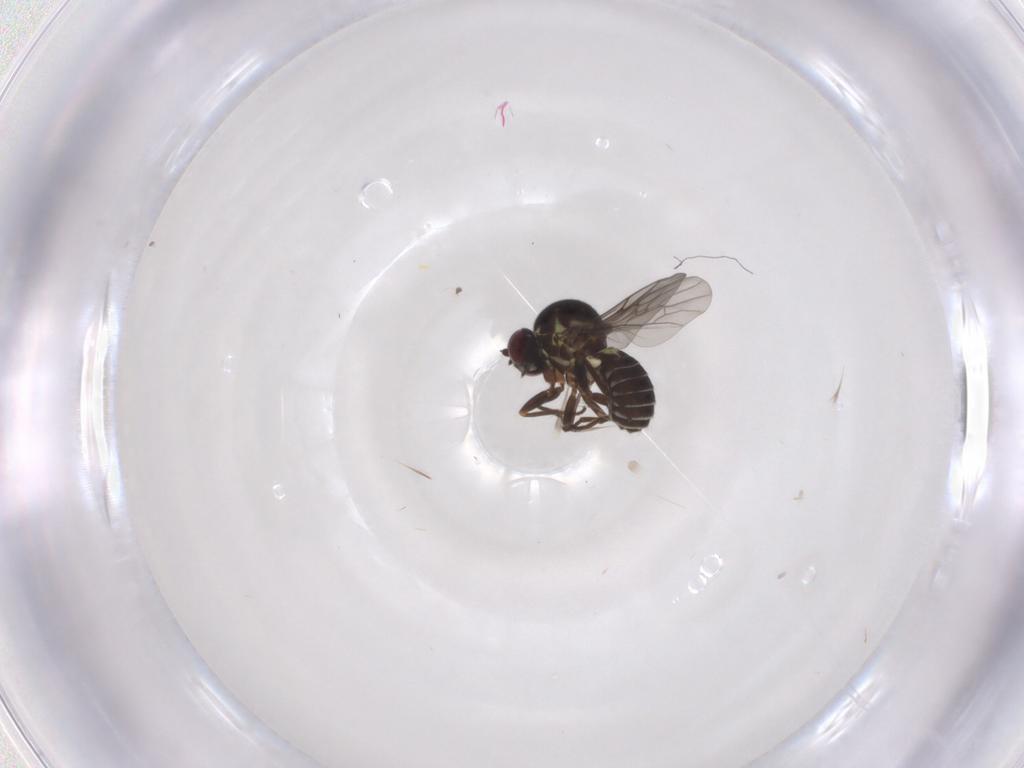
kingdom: Animalia
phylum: Arthropoda
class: Insecta
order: Diptera
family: Bombyliidae
